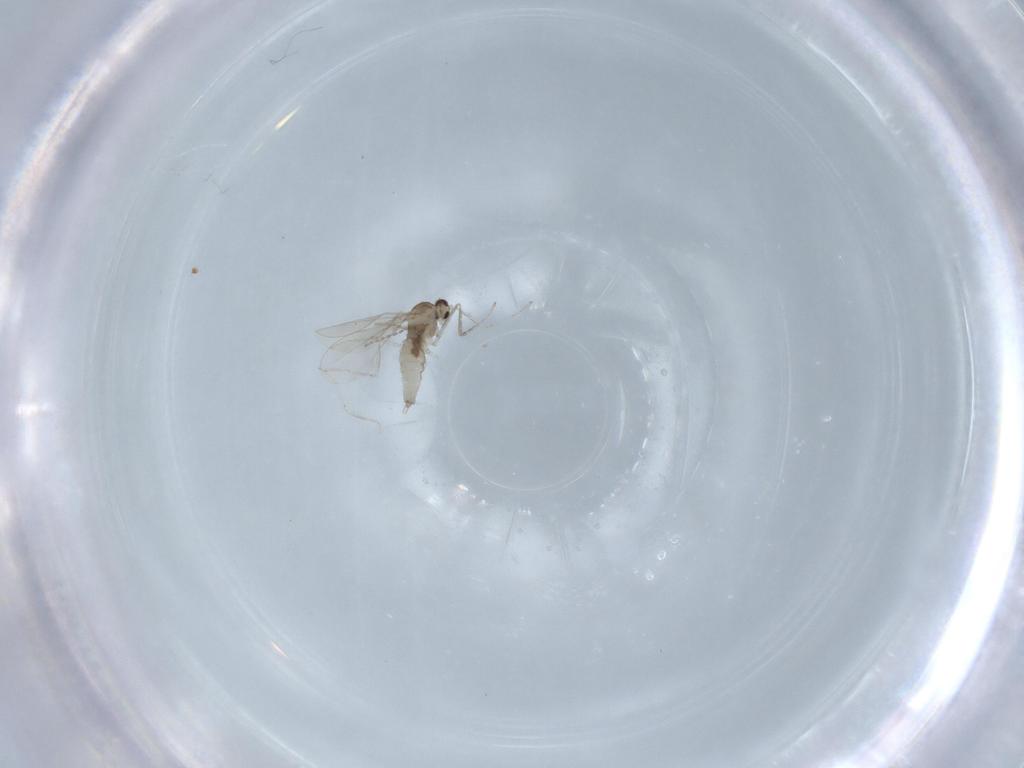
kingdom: Animalia
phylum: Arthropoda
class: Insecta
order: Diptera
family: Cecidomyiidae
